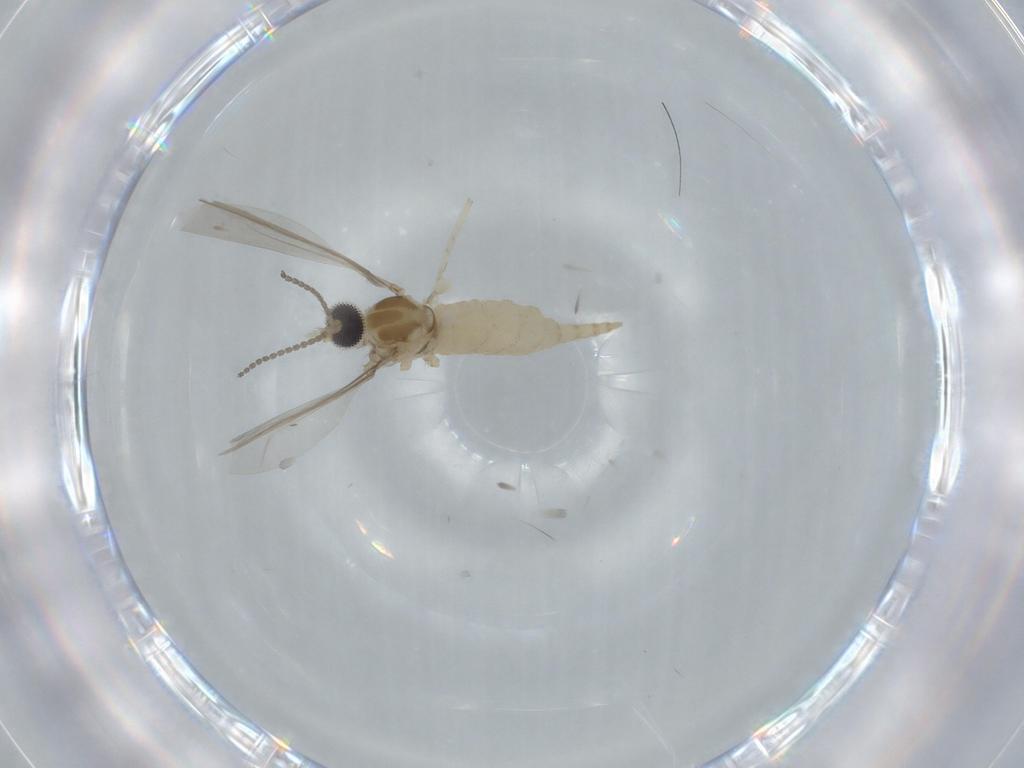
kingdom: Animalia
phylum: Arthropoda
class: Insecta
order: Diptera
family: Cecidomyiidae
